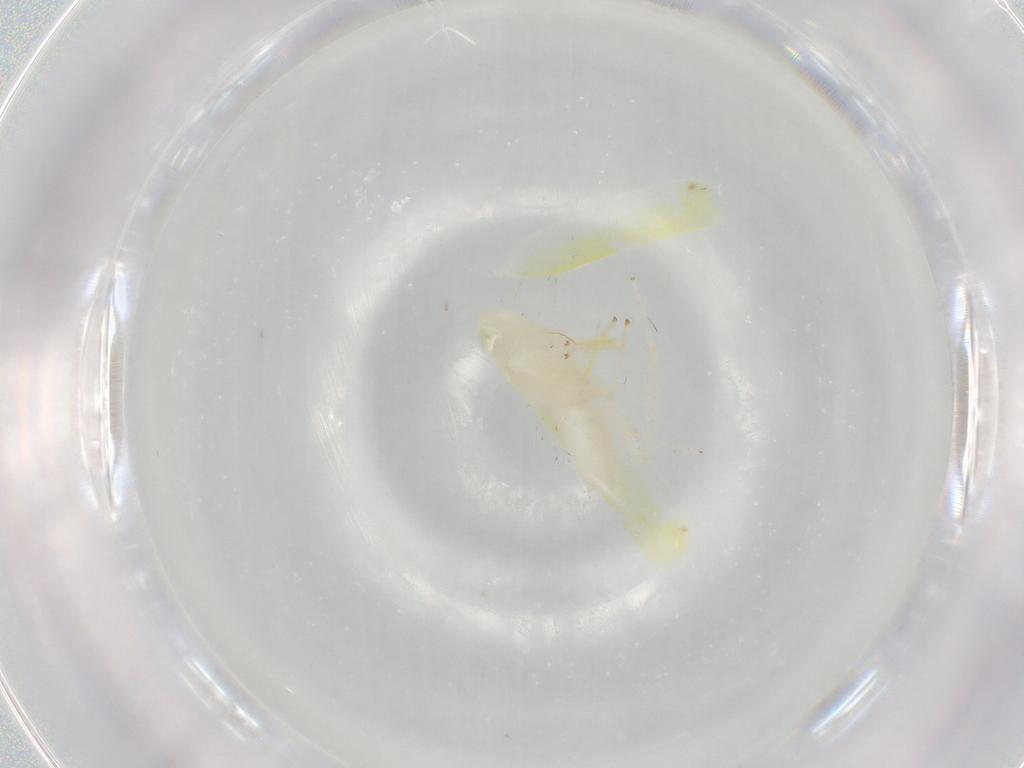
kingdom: Animalia
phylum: Arthropoda
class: Insecta
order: Hemiptera
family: Cicadellidae
